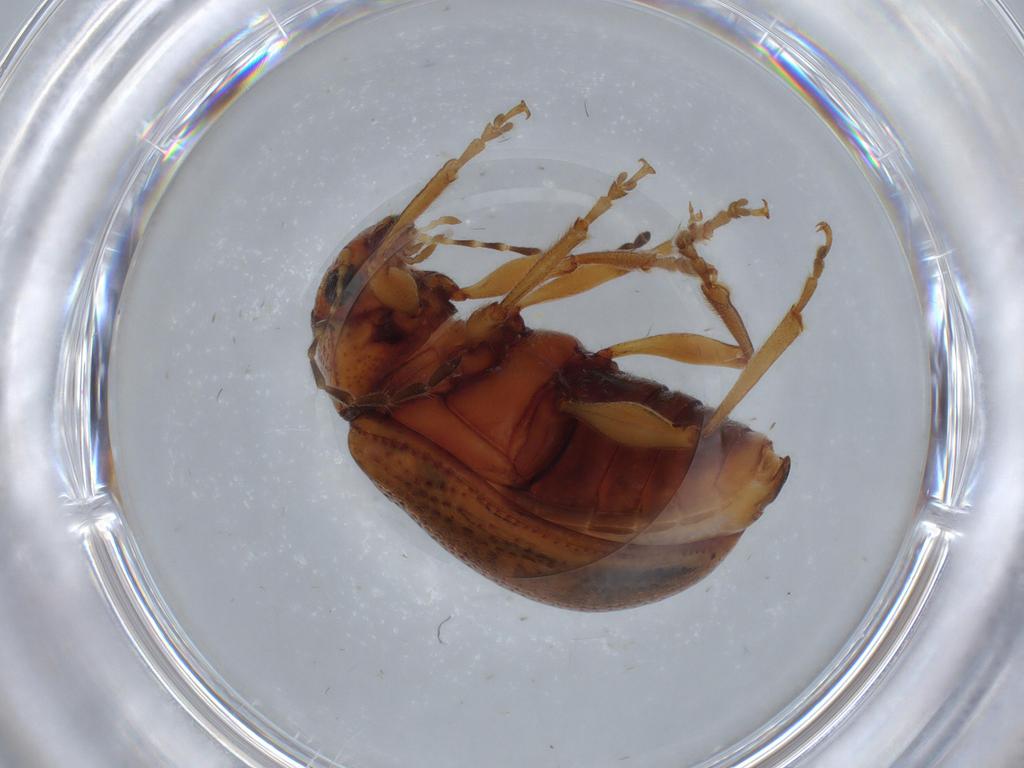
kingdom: Animalia
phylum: Arthropoda
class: Insecta
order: Coleoptera
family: Chrysomelidae
